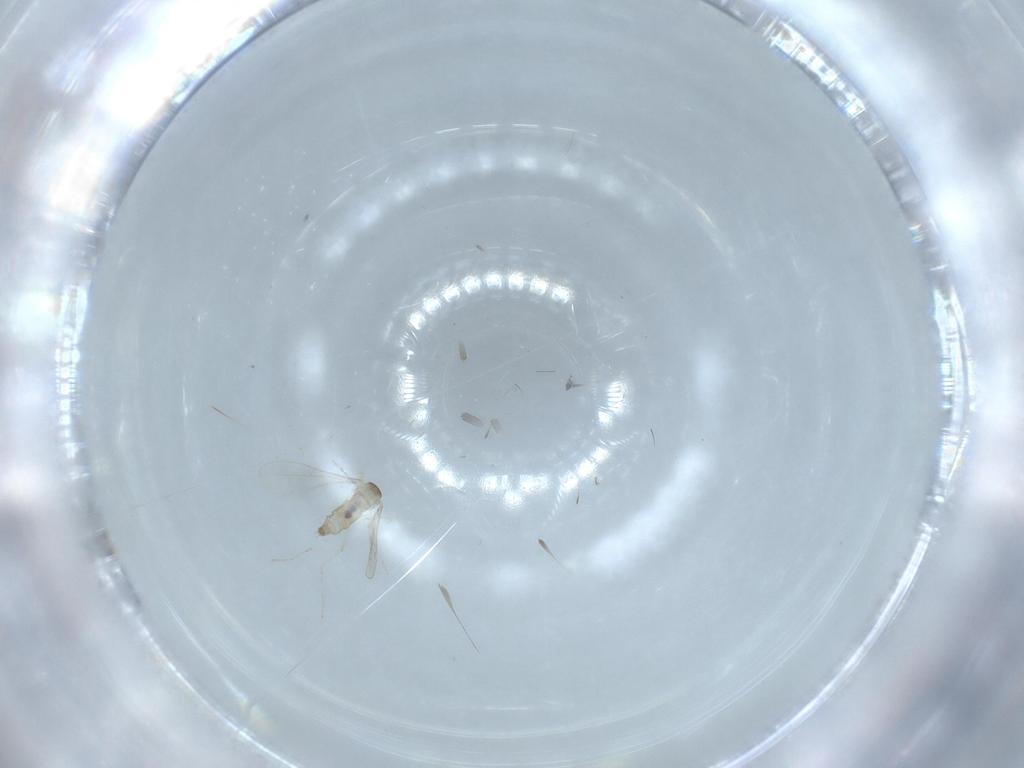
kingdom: Animalia
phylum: Arthropoda
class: Insecta
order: Diptera
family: Cecidomyiidae
